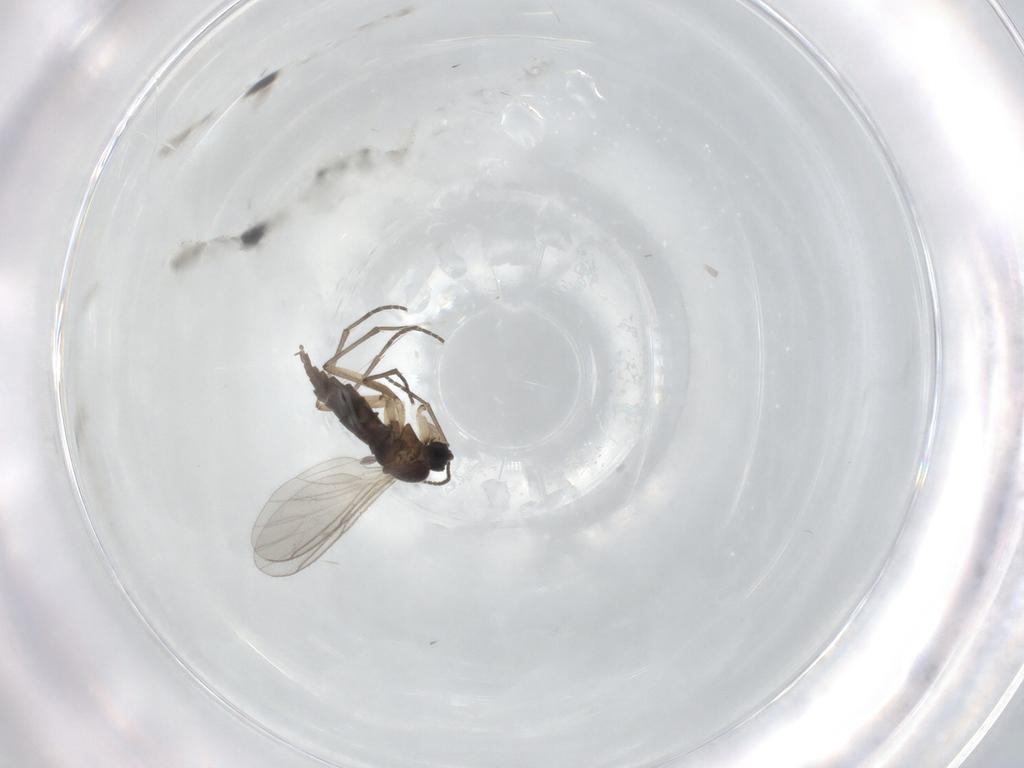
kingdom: Animalia
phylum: Arthropoda
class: Insecta
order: Diptera
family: Sciaridae
